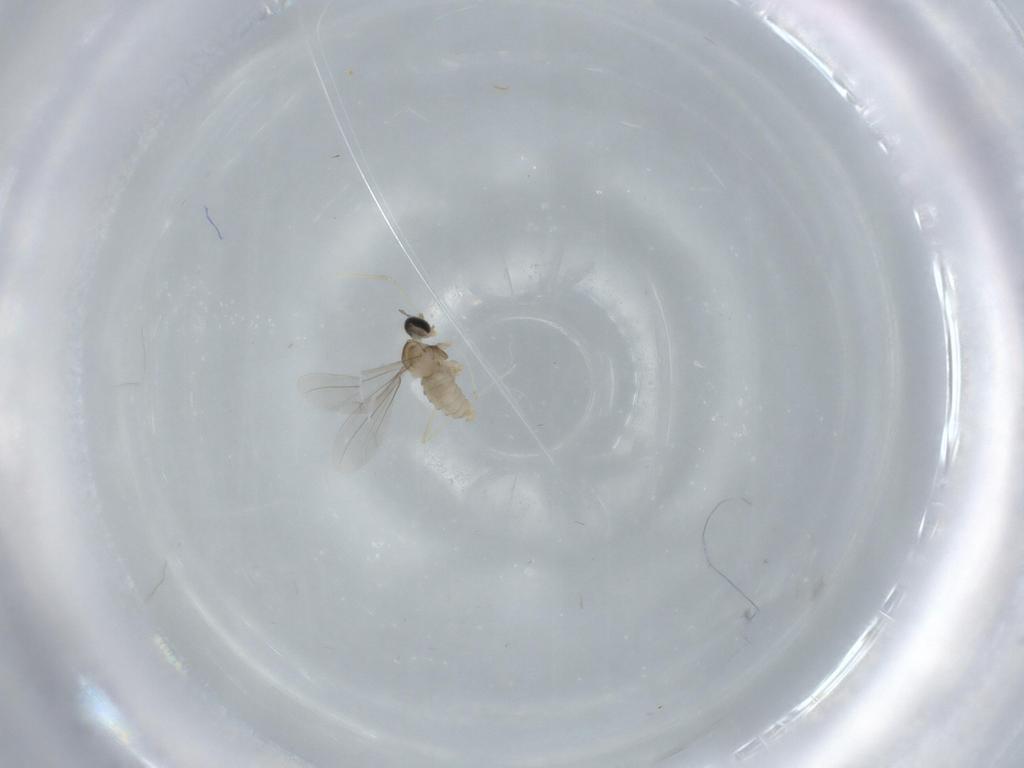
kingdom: Animalia
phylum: Arthropoda
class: Insecta
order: Diptera
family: Cecidomyiidae
